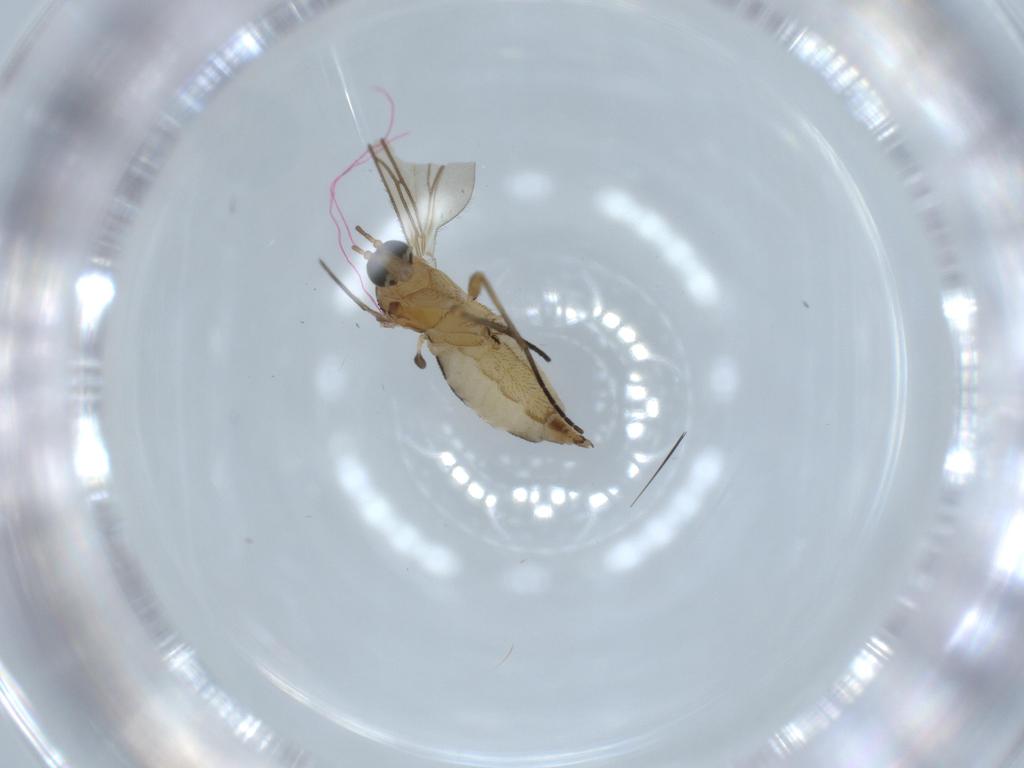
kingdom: Animalia
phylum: Arthropoda
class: Insecta
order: Diptera
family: Sciaridae
